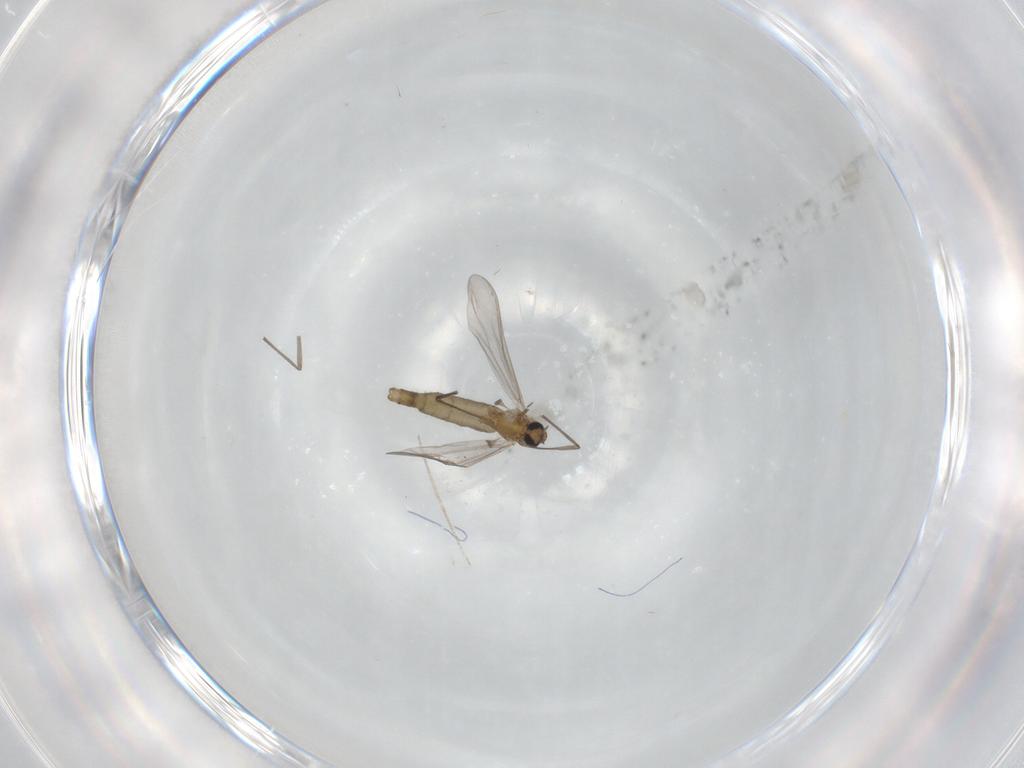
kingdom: Animalia
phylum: Arthropoda
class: Insecta
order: Diptera
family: Chironomidae
